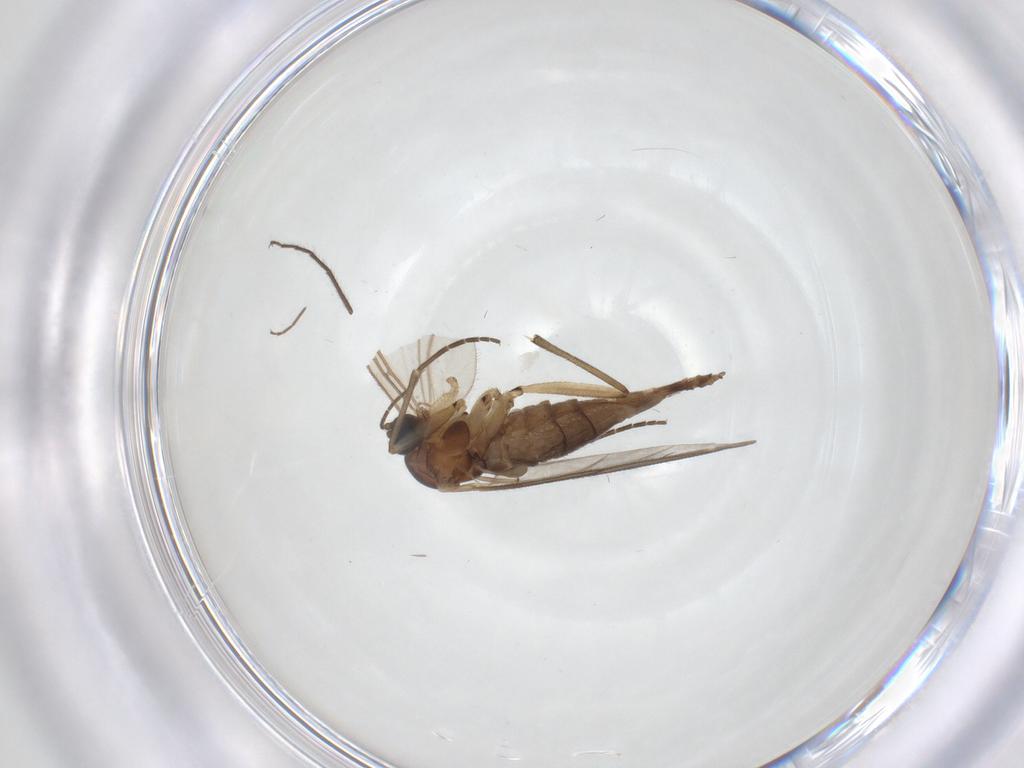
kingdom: Animalia
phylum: Arthropoda
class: Insecta
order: Diptera
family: Sciaridae
